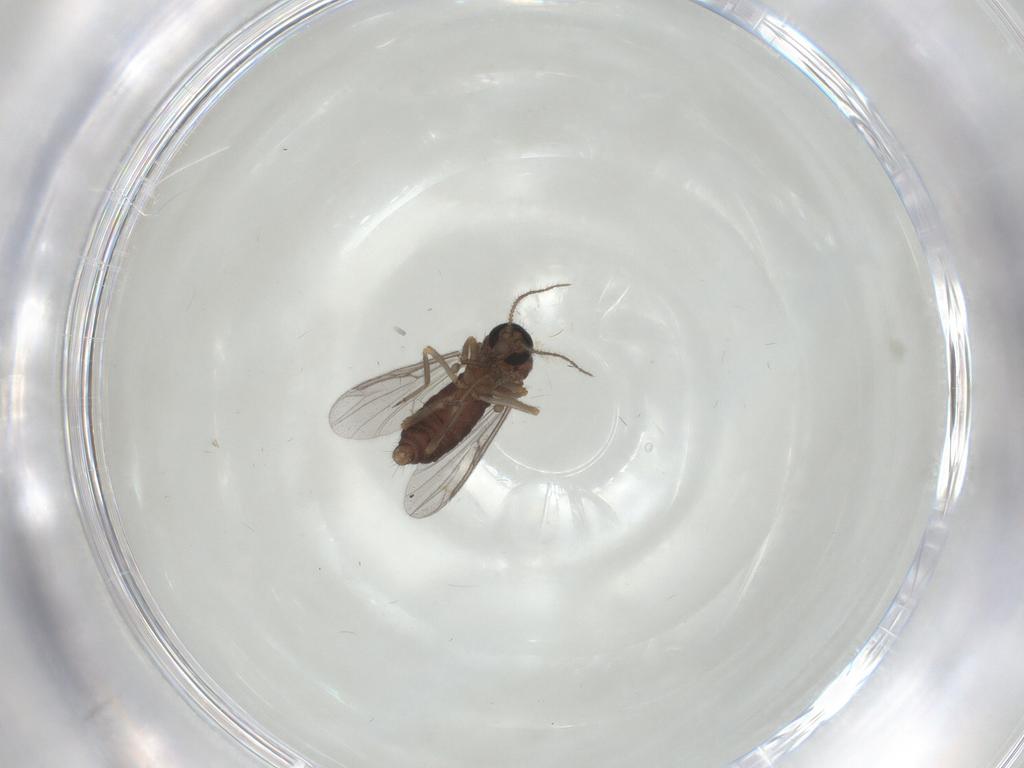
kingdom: Animalia
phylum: Arthropoda
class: Insecta
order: Diptera
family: Ceratopogonidae
